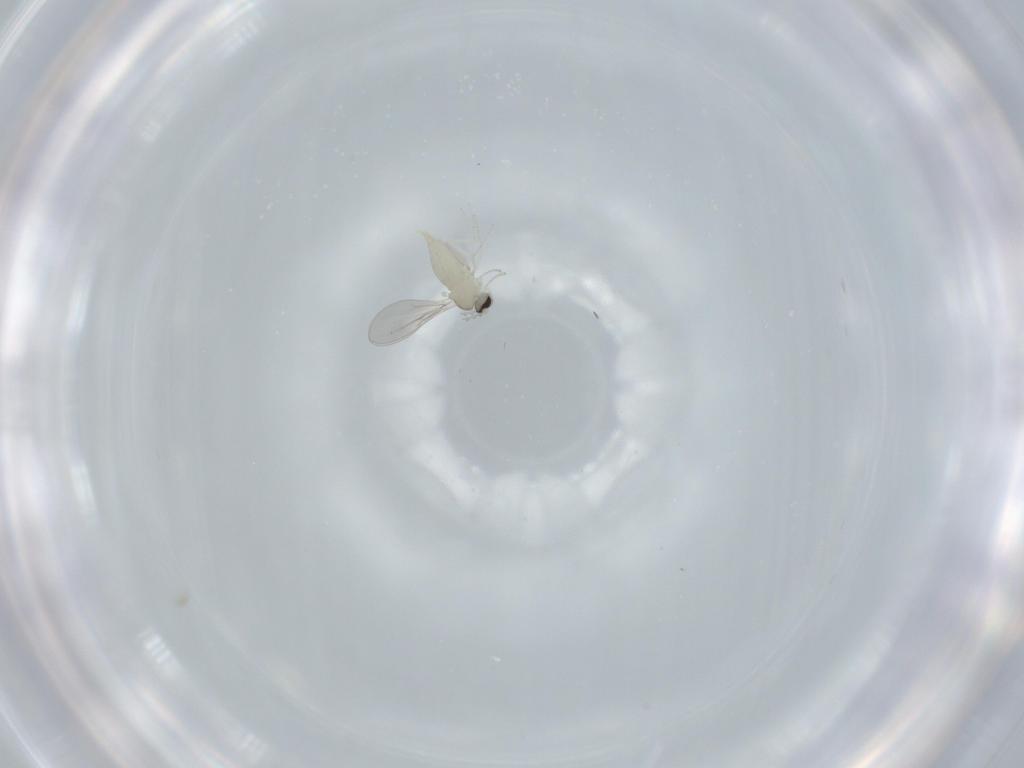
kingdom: Animalia
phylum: Arthropoda
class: Insecta
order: Diptera
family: Cecidomyiidae
